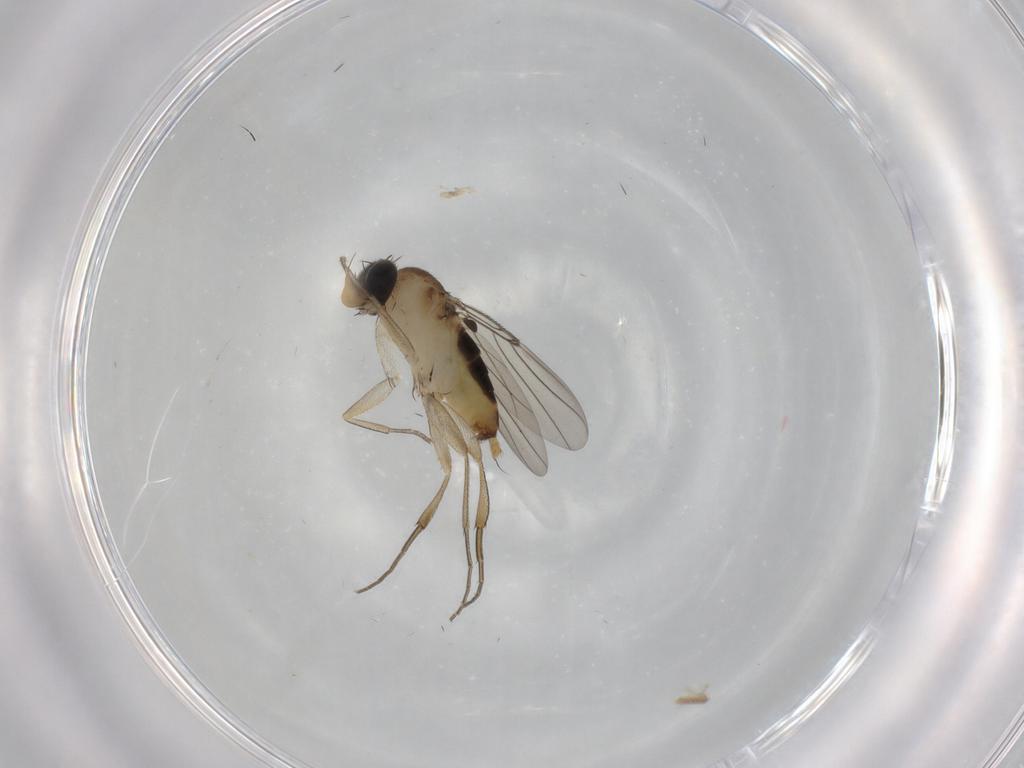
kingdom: Animalia
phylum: Arthropoda
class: Insecta
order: Diptera
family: Phoridae
